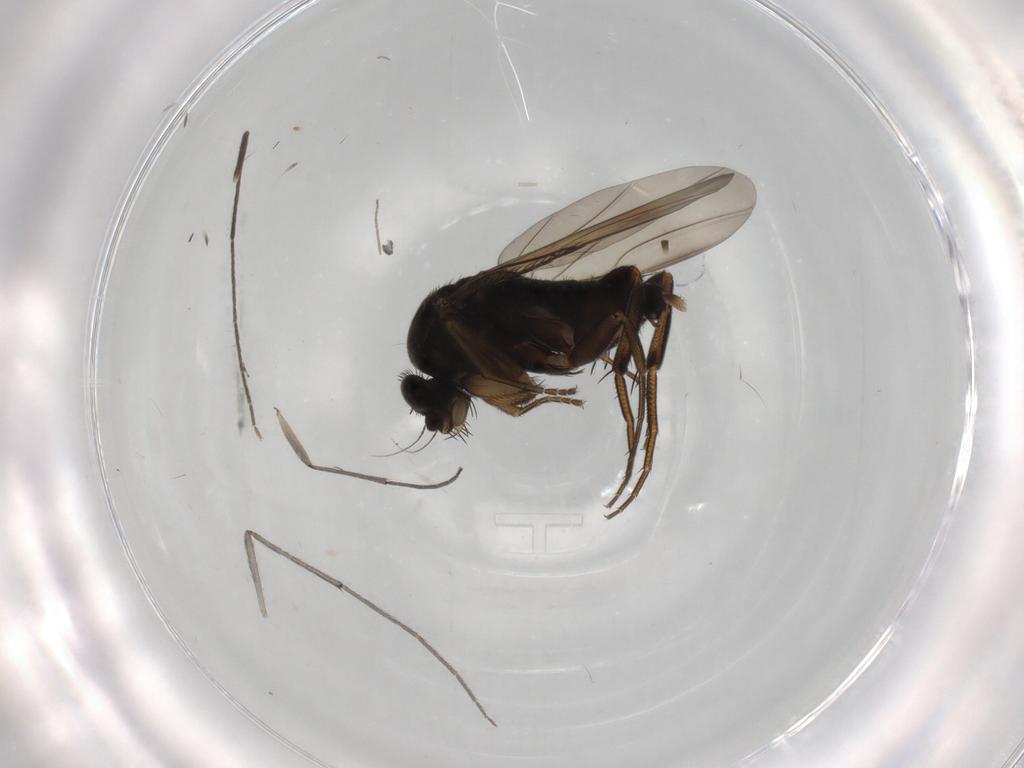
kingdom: Animalia
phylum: Arthropoda
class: Insecta
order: Diptera
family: Phoridae
